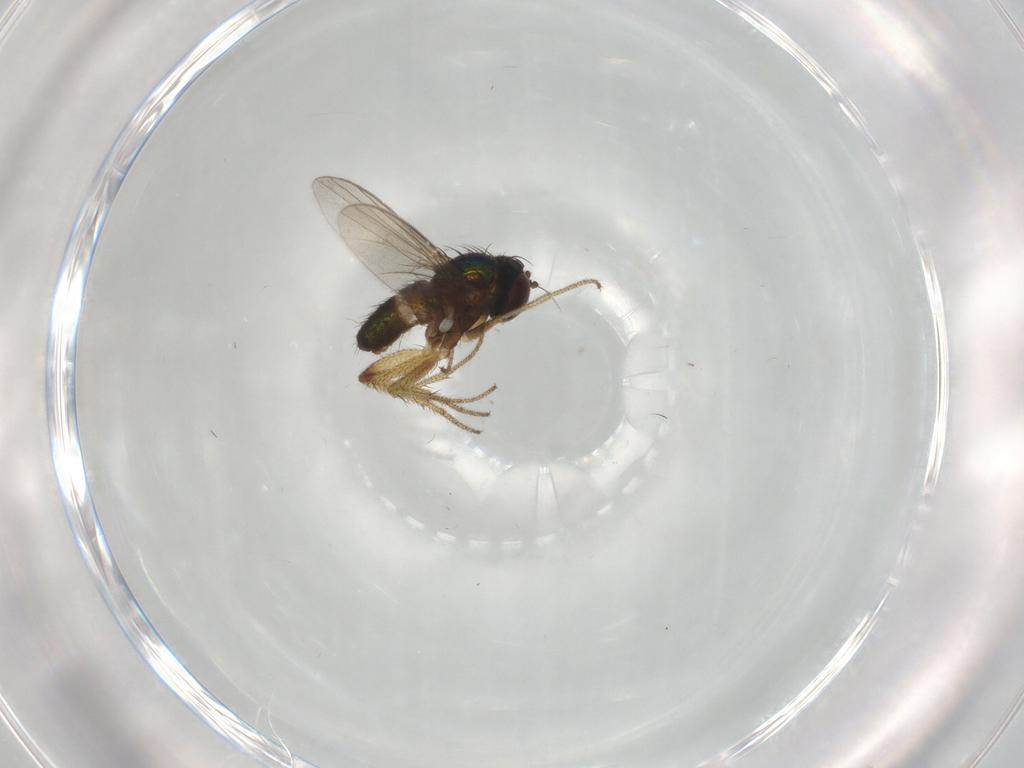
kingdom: Animalia
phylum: Arthropoda
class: Insecta
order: Diptera
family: Dolichopodidae
